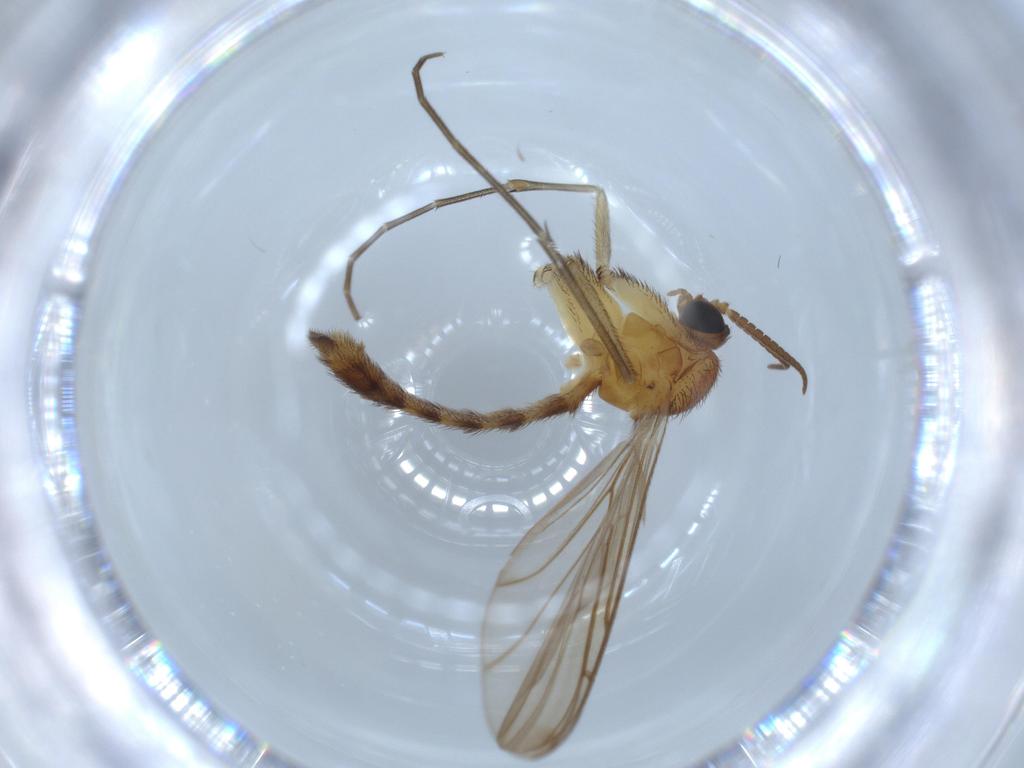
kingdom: Animalia
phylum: Arthropoda
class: Insecta
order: Diptera
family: Keroplatidae
